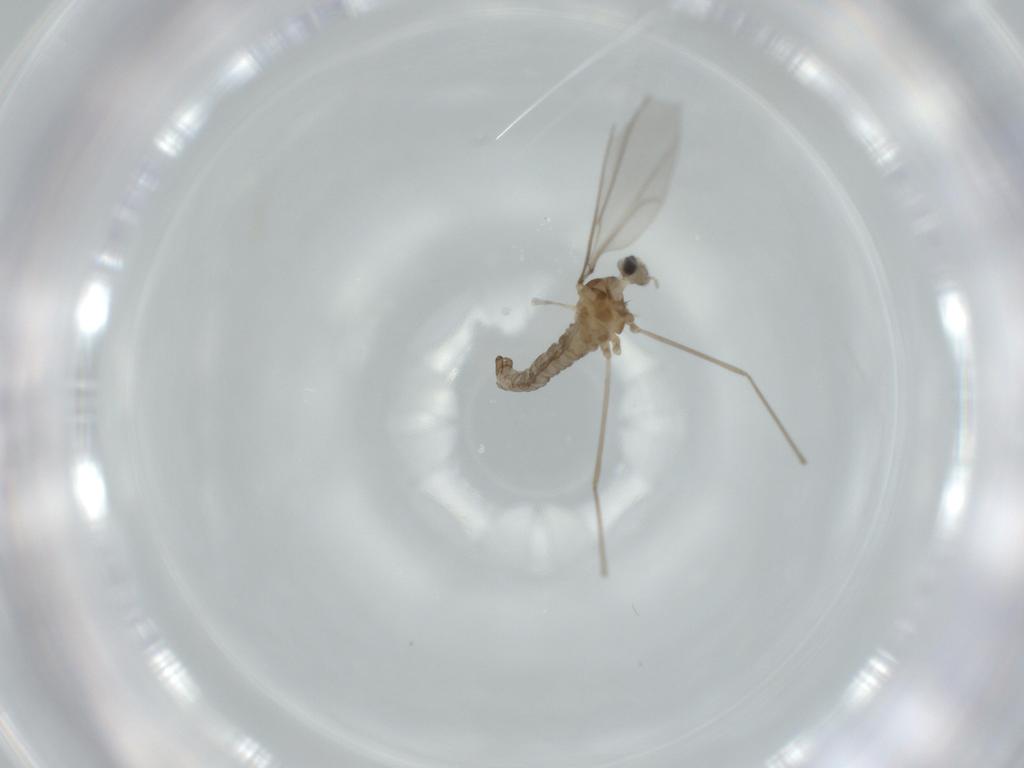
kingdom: Animalia
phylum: Arthropoda
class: Insecta
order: Diptera
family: Cecidomyiidae
